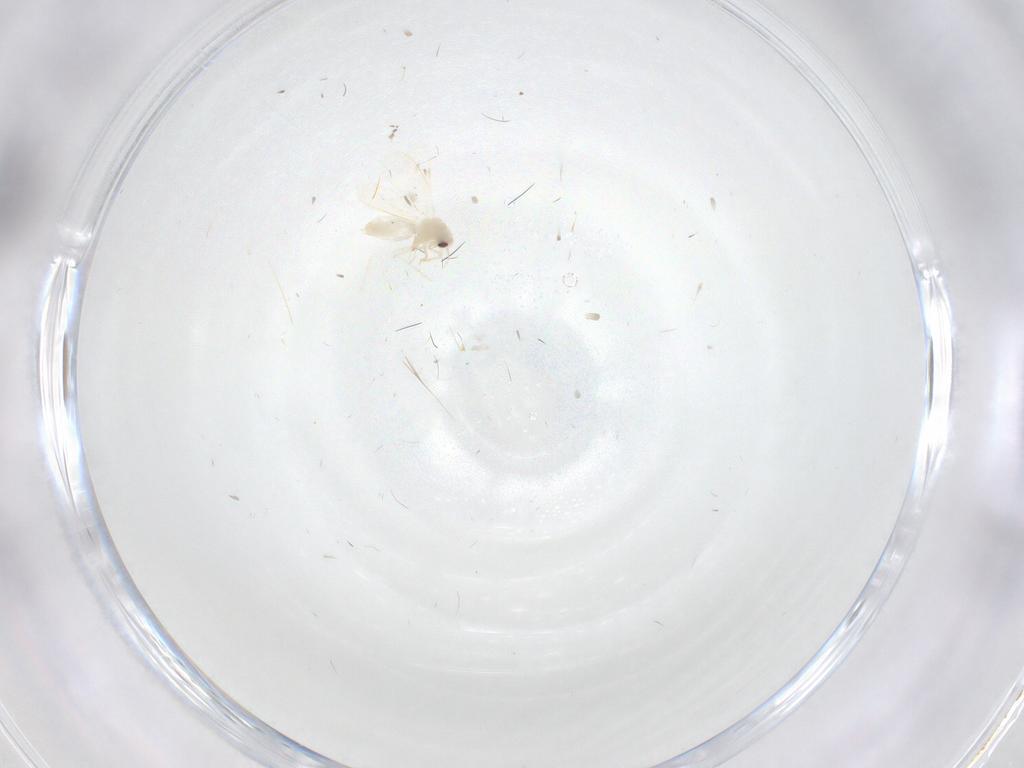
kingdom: Animalia
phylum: Arthropoda
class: Insecta
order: Hemiptera
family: Aleyrodidae
